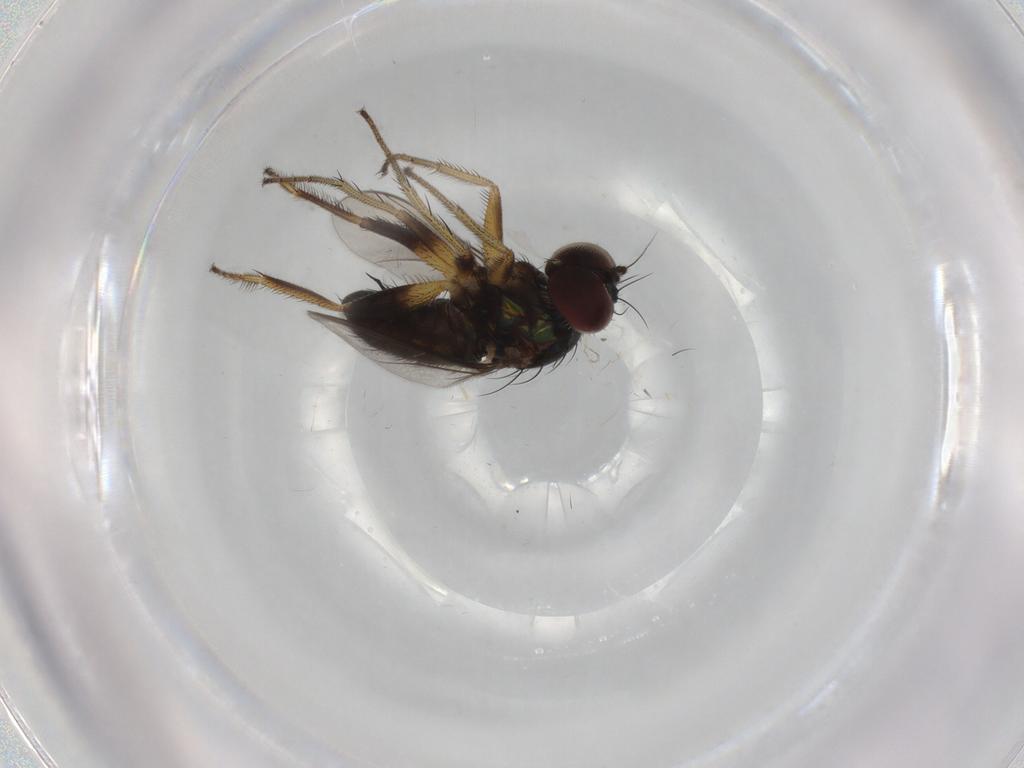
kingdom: Animalia
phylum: Arthropoda
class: Insecta
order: Diptera
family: Dolichopodidae
